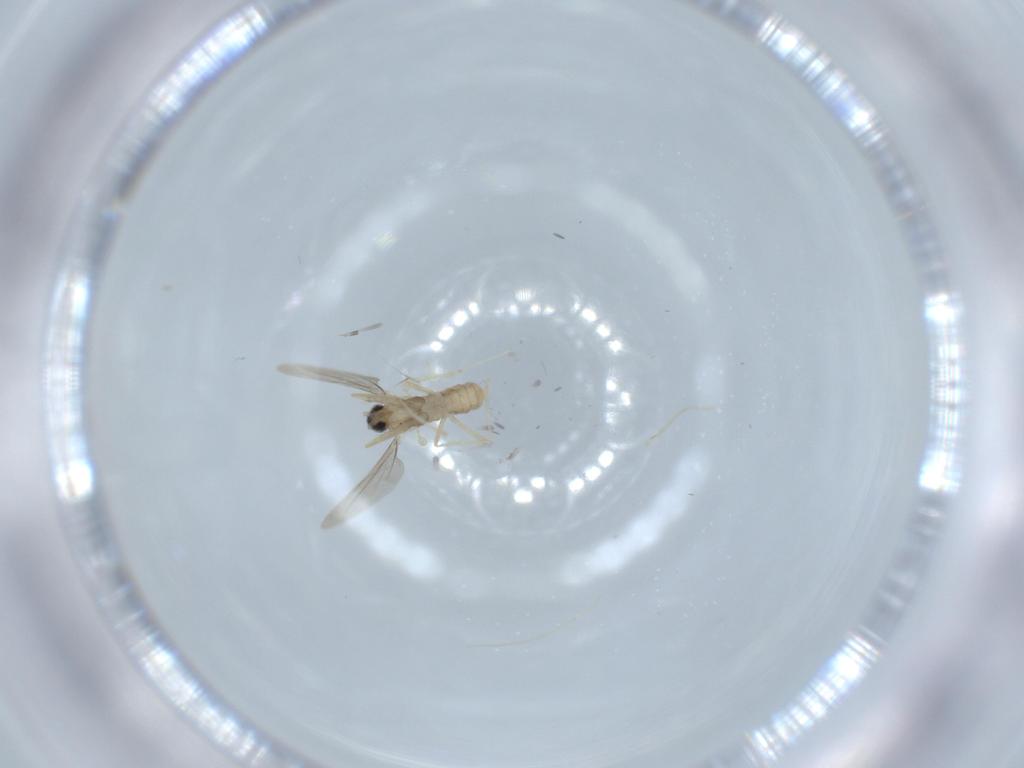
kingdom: Animalia
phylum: Arthropoda
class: Insecta
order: Diptera
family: Cecidomyiidae
